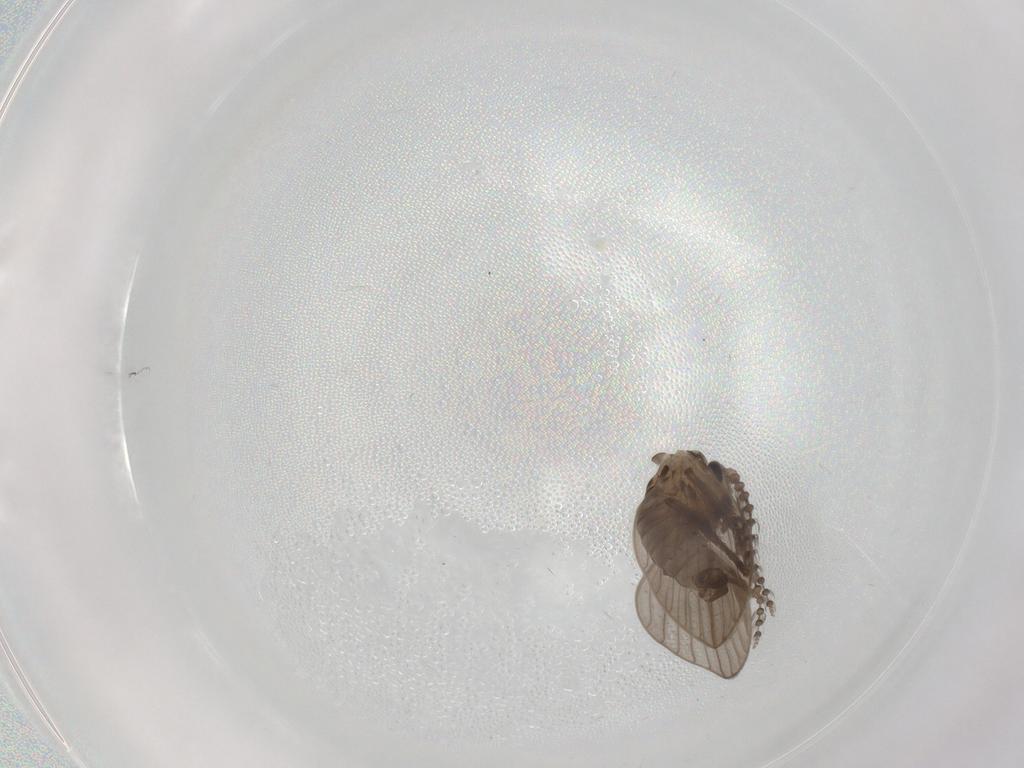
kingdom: Animalia
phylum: Arthropoda
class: Insecta
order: Diptera
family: Psychodidae
